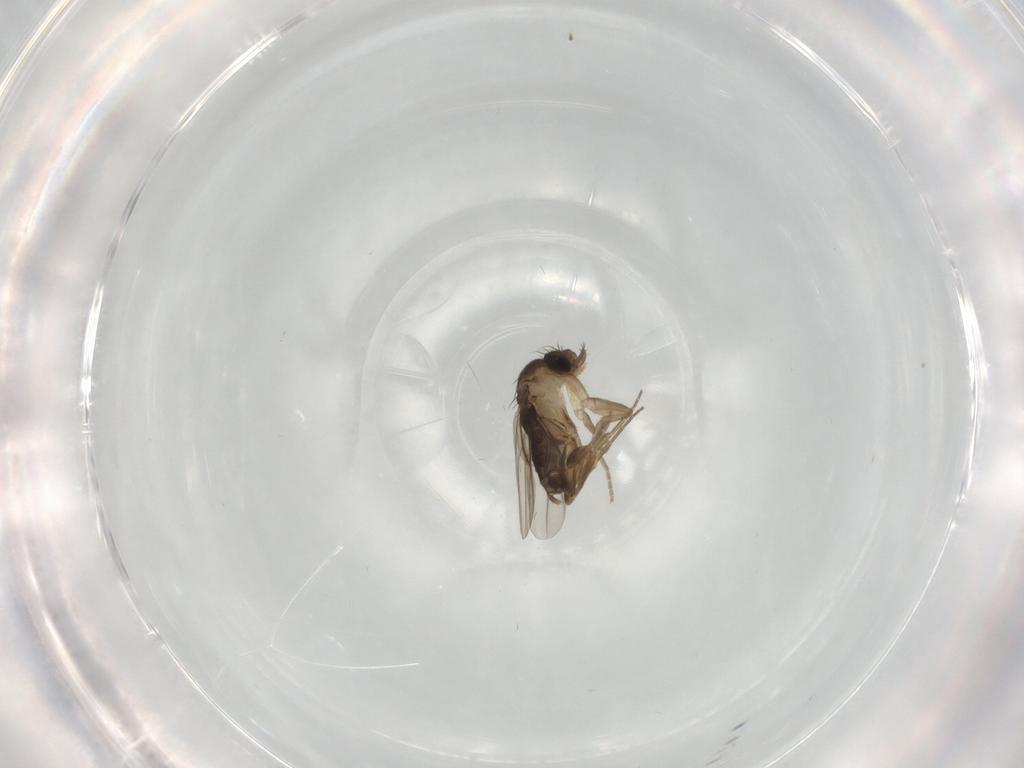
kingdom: Animalia
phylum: Arthropoda
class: Insecta
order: Diptera
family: Phoridae
